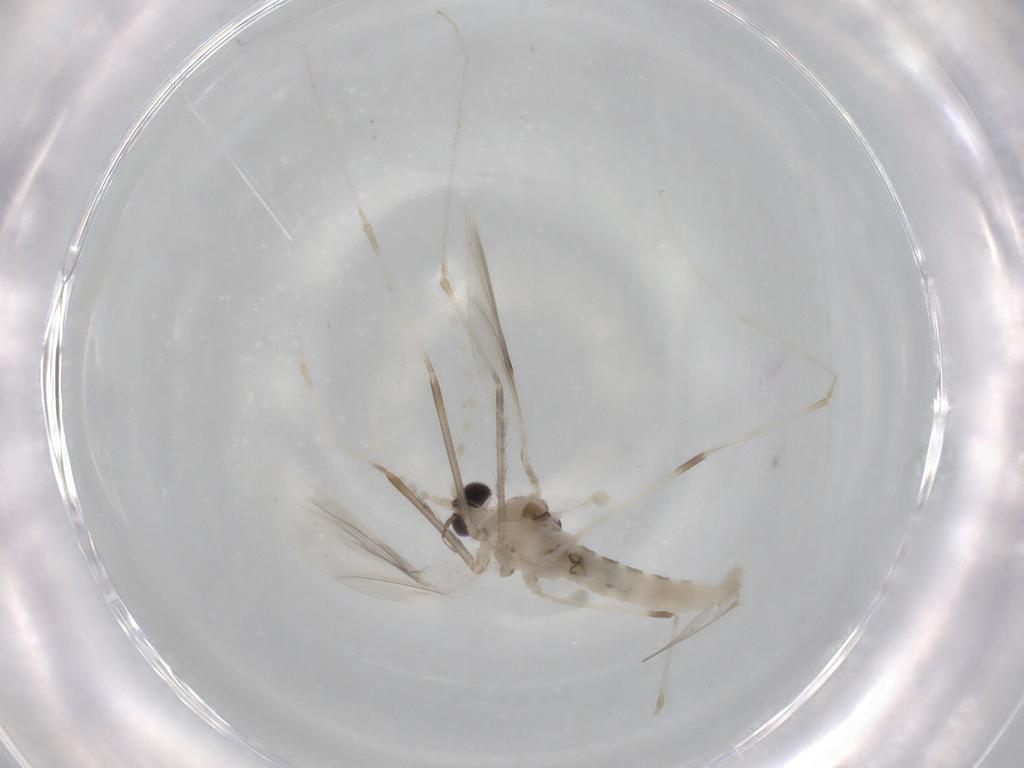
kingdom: Animalia
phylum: Arthropoda
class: Insecta
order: Diptera
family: Cecidomyiidae
